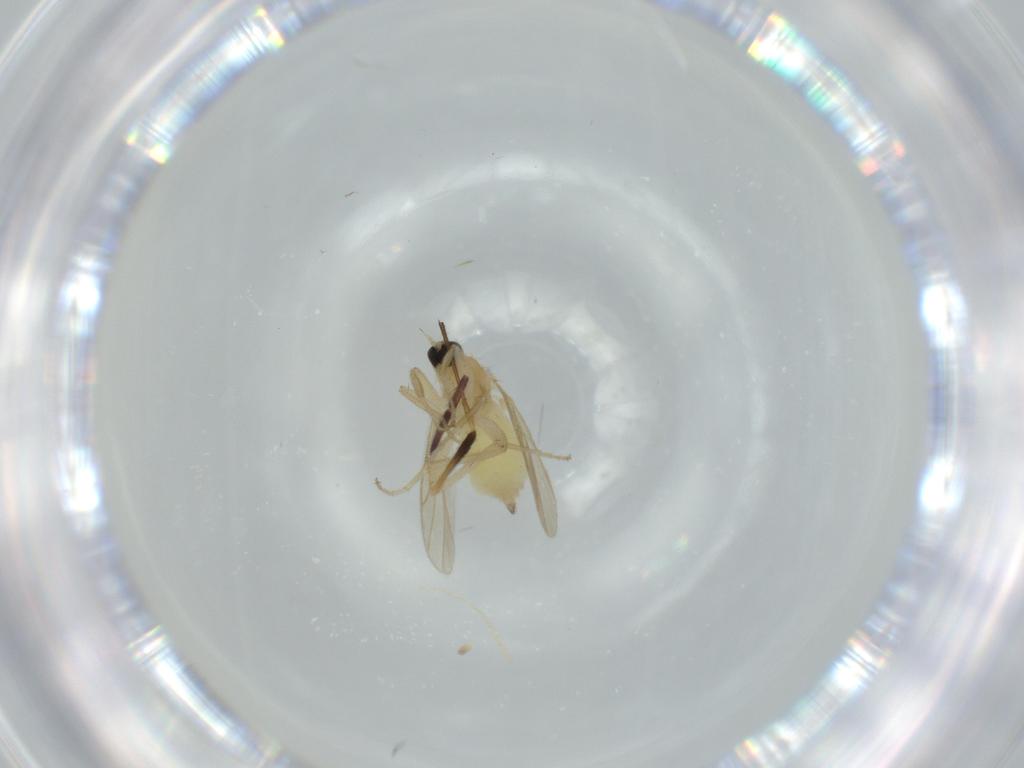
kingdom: Animalia
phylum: Arthropoda
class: Insecta
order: Diptera
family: Hybotidae
